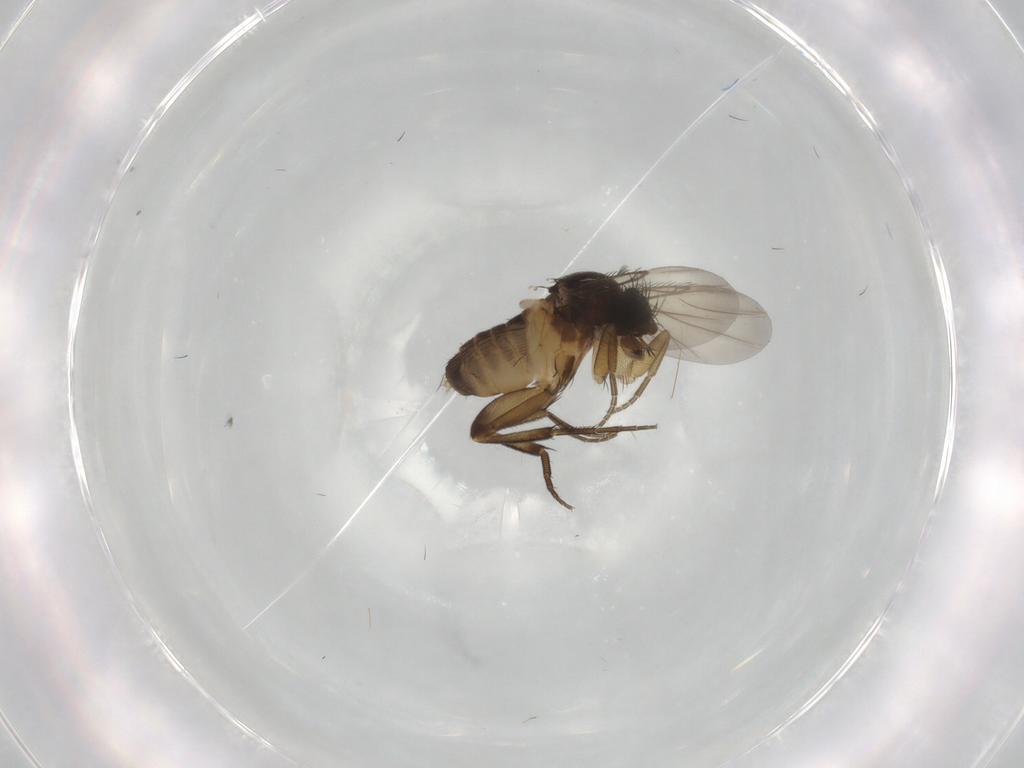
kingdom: Animalia
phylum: Arthropoda
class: Insecta
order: Diptera
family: Phoridae
